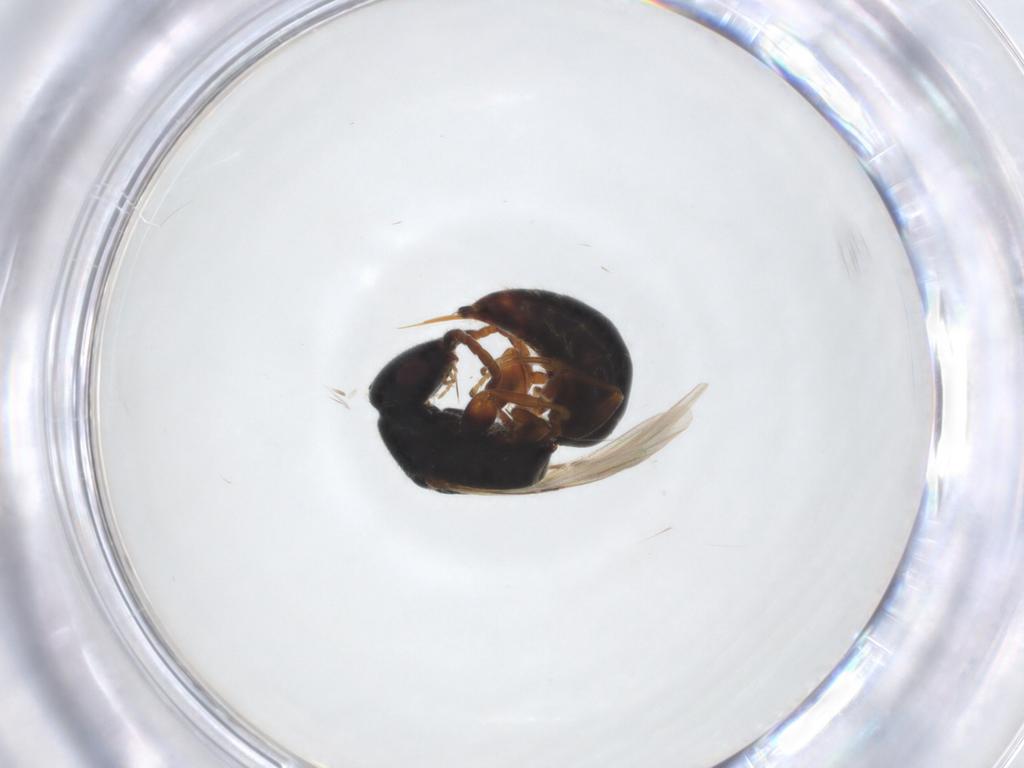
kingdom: Animalia
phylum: Arthropoda
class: Insecta
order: Hymenoptera
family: Bethylidae
